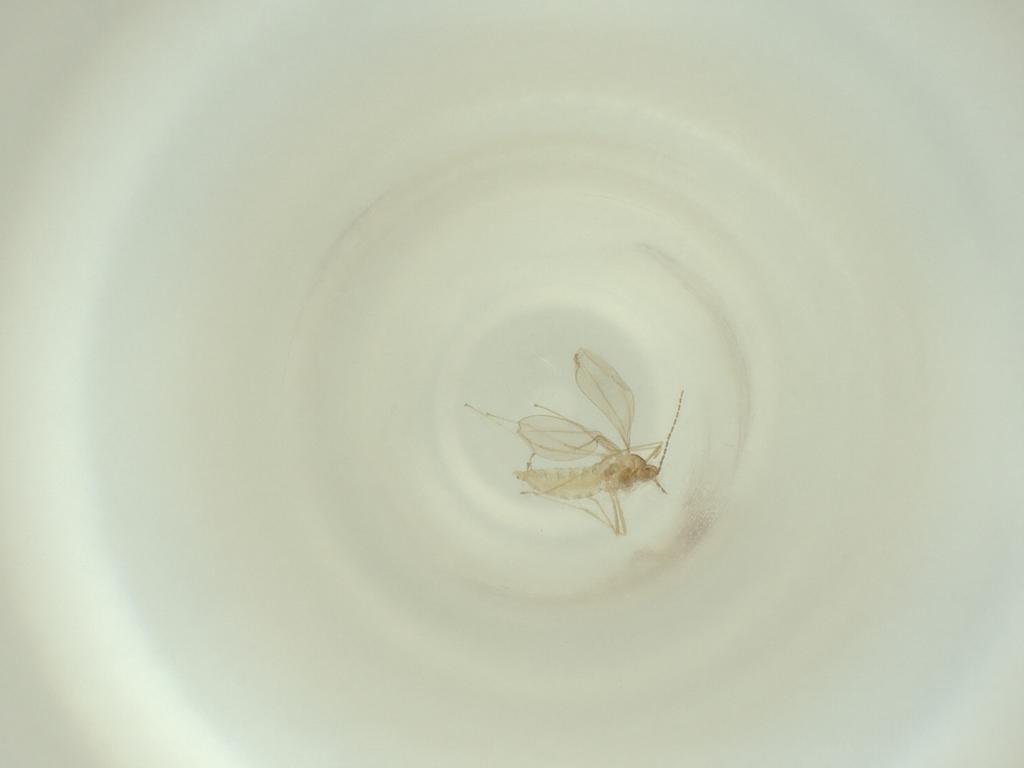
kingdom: Animalia
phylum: Arthropoda
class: Insecta
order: Diptera
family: Cecidomyiidae
